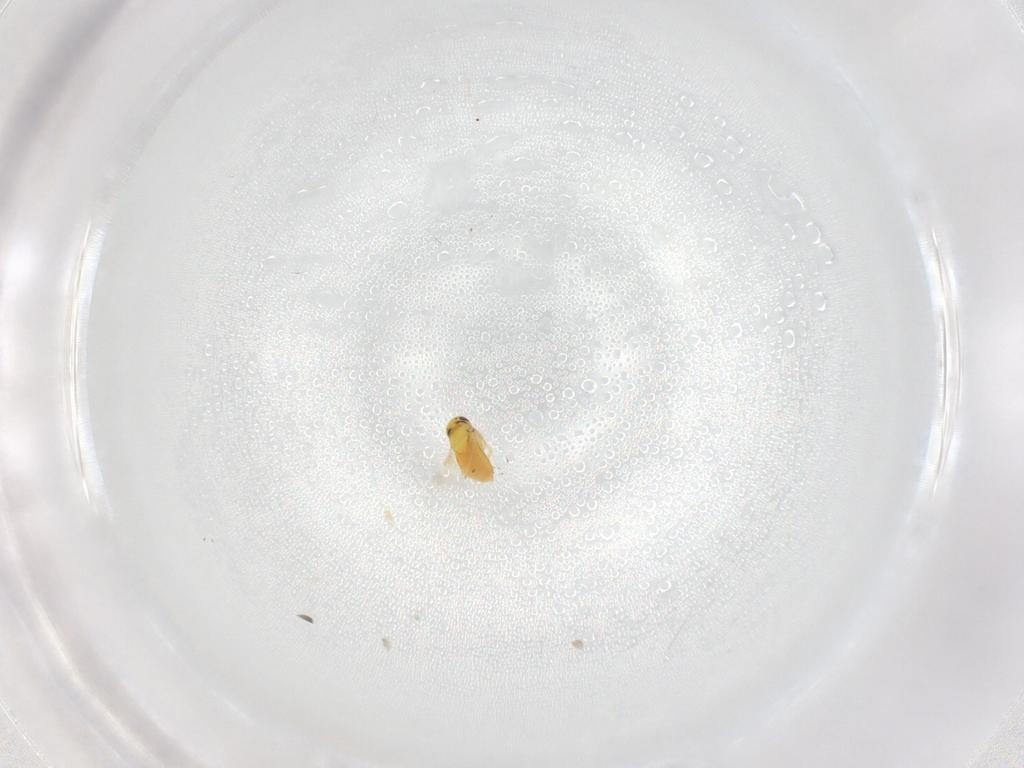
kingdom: Animalia
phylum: Arthropoda
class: Insecta
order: Hymenoptera
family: Signiphoridae
